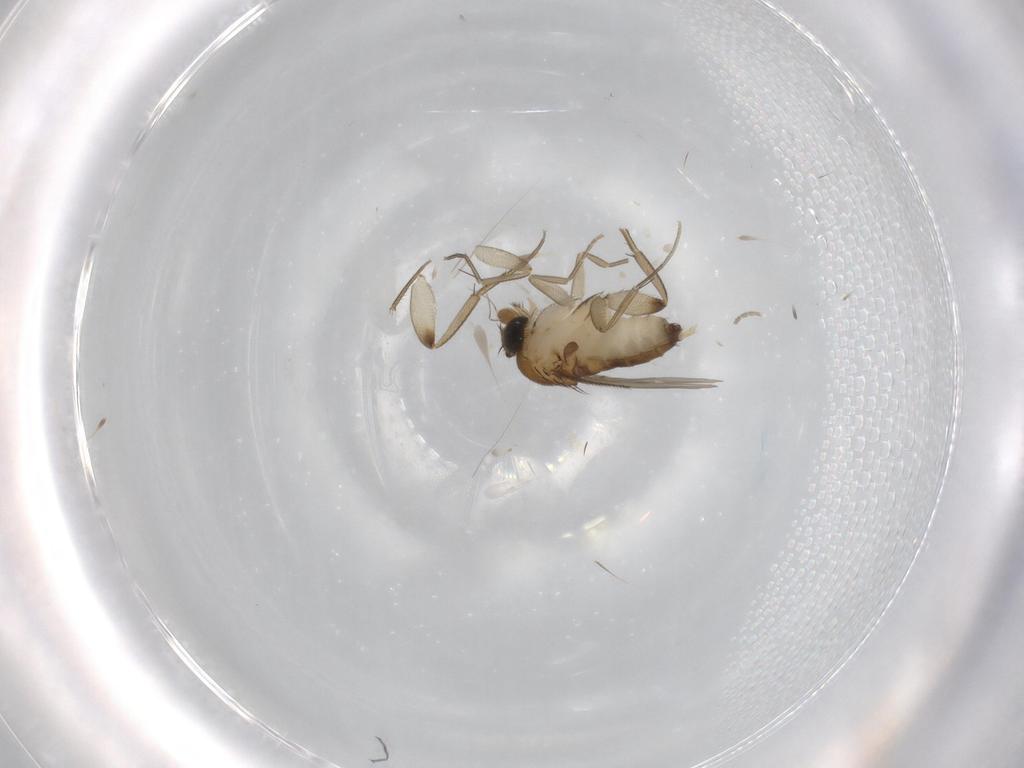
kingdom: Animalia
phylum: Arthropoda
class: Insecta
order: Diptera
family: Phoridae
